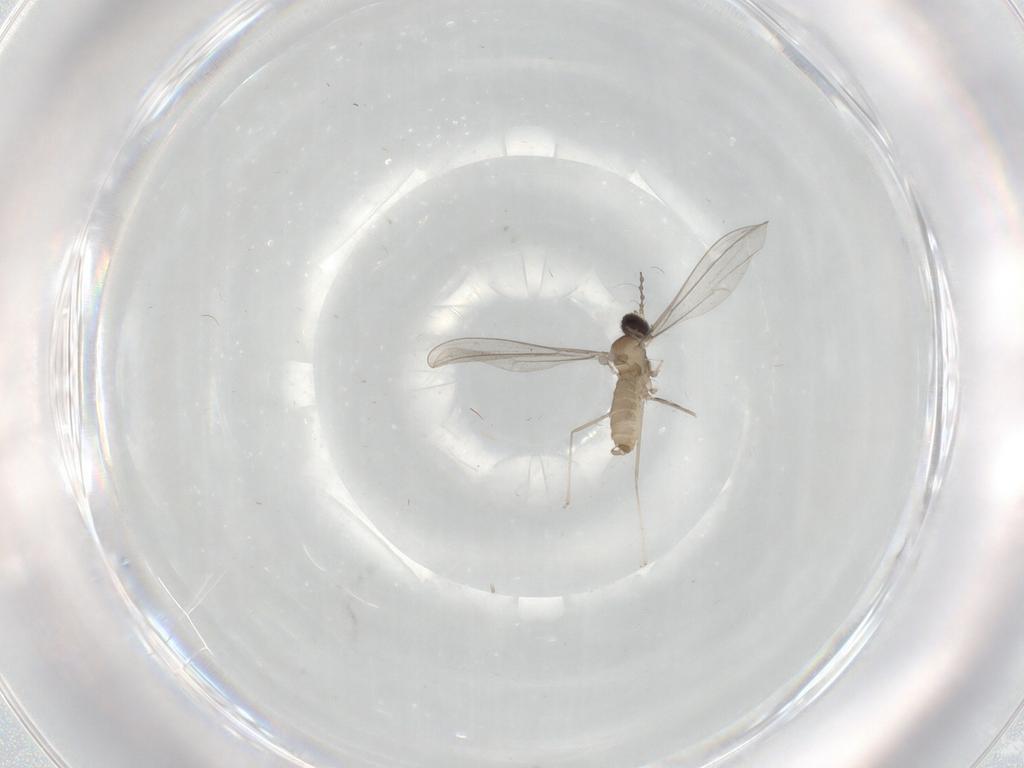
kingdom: Animalia
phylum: Arthropoda
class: Insecta
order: Diptera
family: Cecidomyiidae
